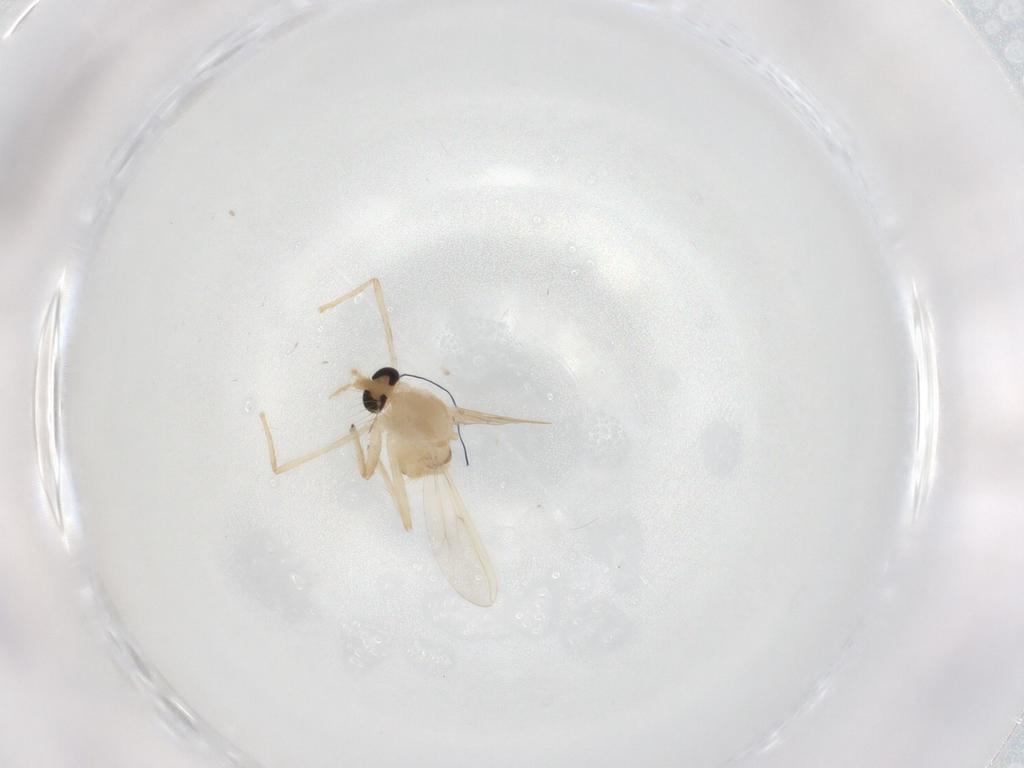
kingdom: Animalia
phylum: Arthropoda
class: Insecta
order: Diptera
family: Chironomidae
